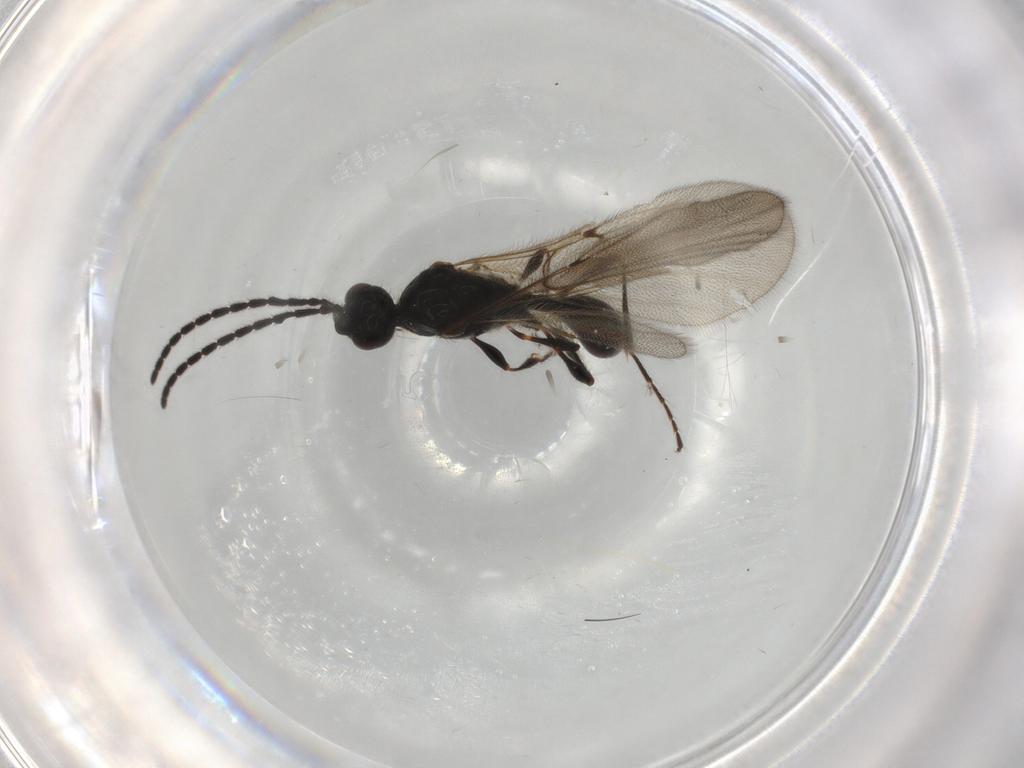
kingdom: Animalia
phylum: Arthropoda
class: Insecta
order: Hymenoptera
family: Diapriidae
